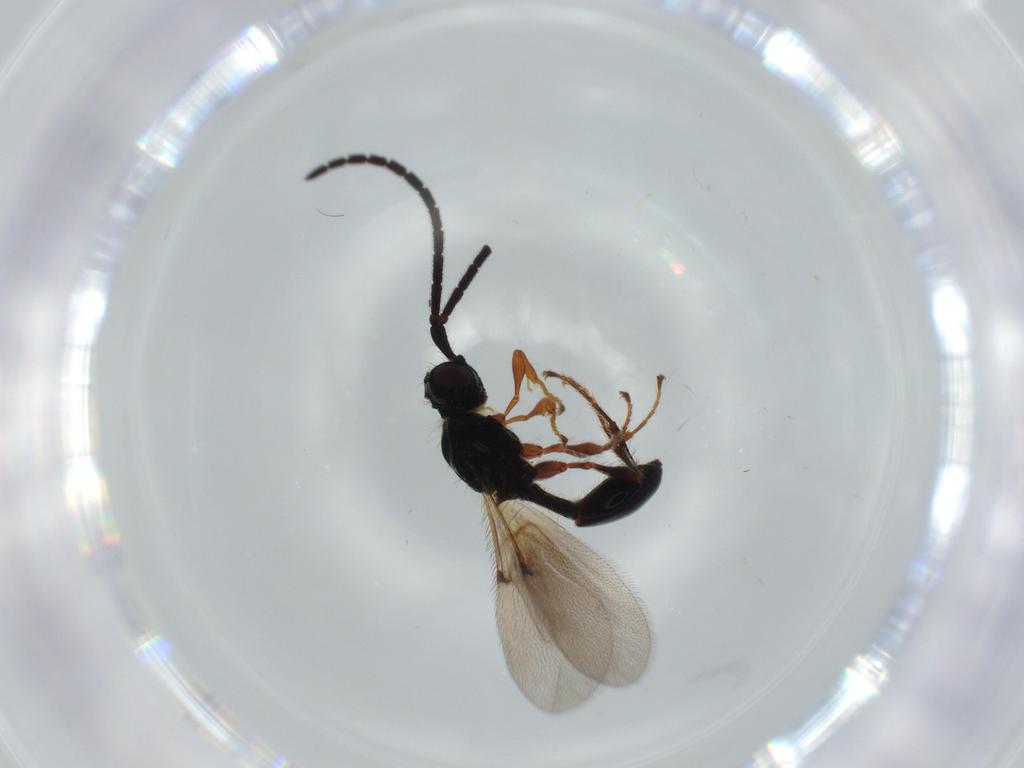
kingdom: Animalia
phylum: Arthropoda
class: Insecta
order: Hymenoptera
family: Diapriidae
